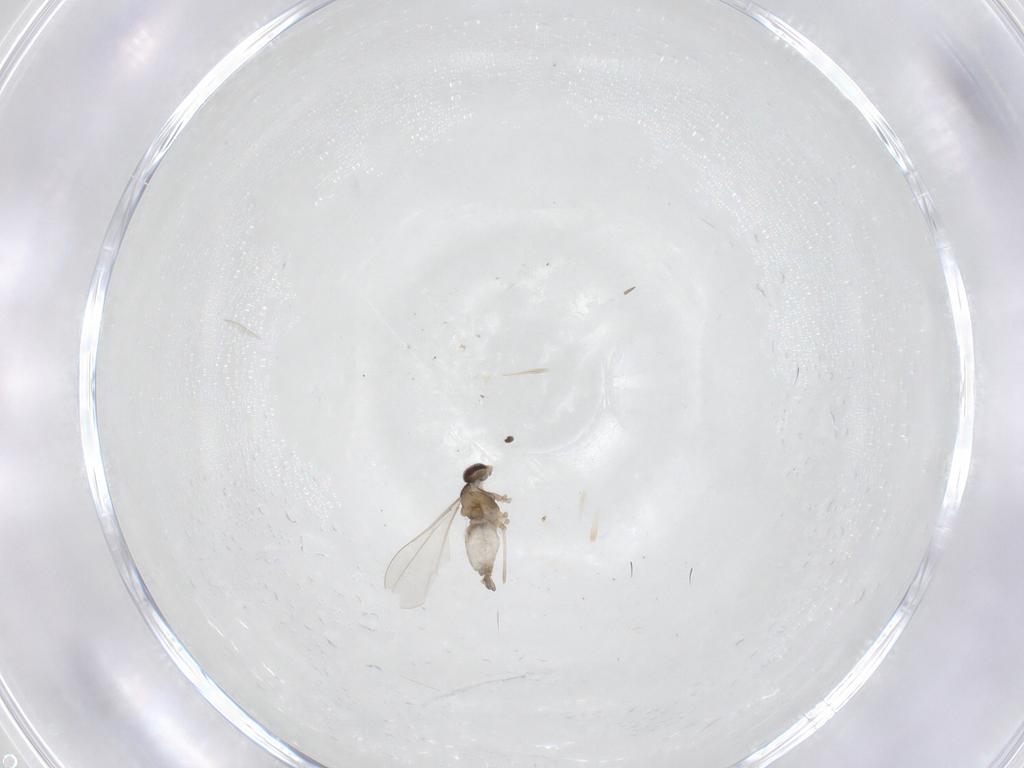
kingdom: Animalia
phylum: Arthropoda
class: Insecta
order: Diptera
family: Cecidomyiidae
